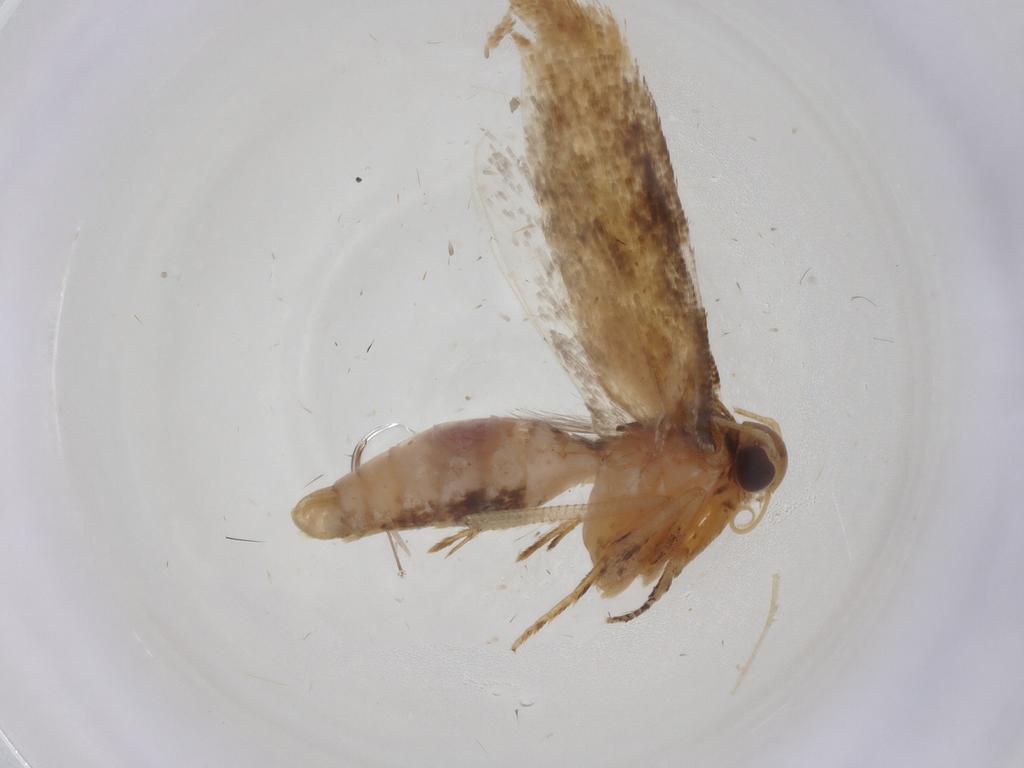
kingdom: Animalia
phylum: Arthropoda
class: Insecta
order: Lepidoptera
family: Gelechiidae
